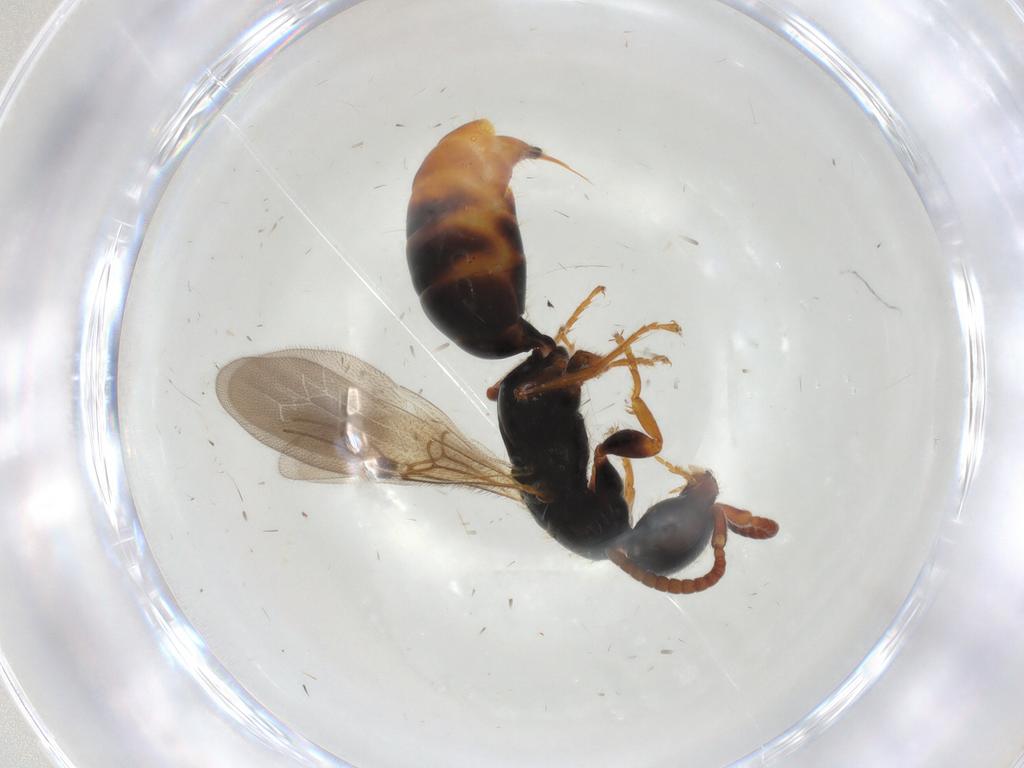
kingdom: Animalia
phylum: Arthropoda
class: Insecta
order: Hymenoptera
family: Bethylidae
